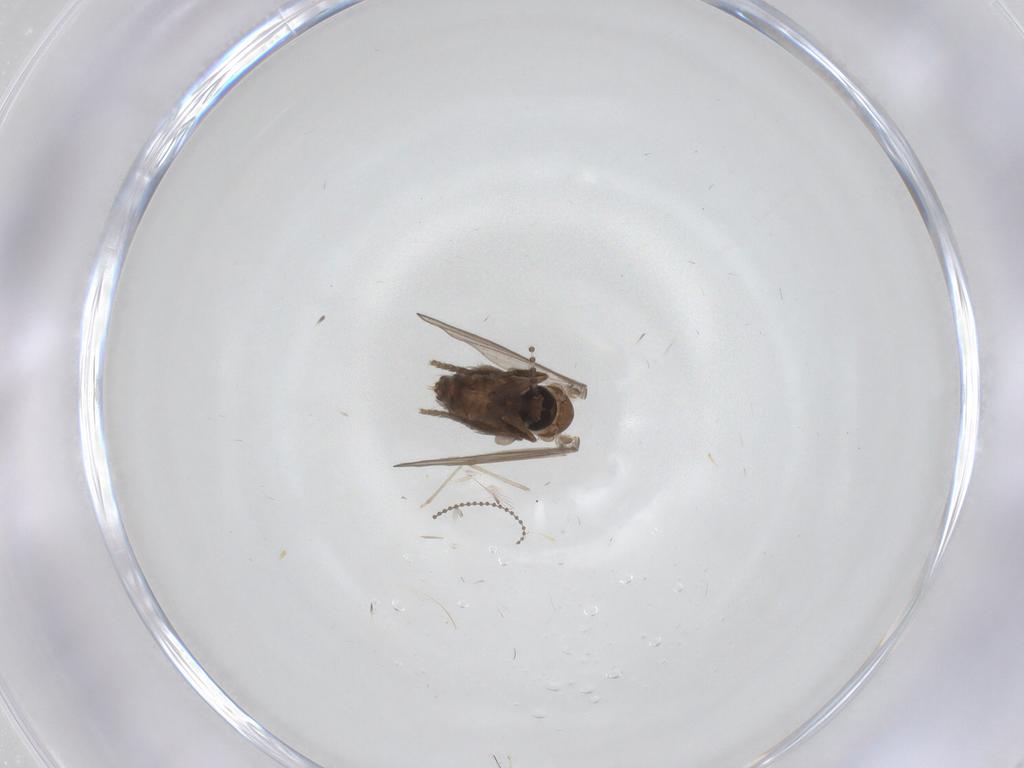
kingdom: Animalia
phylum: Arthropoda
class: Insecta
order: Diptera
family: Psychodidae
